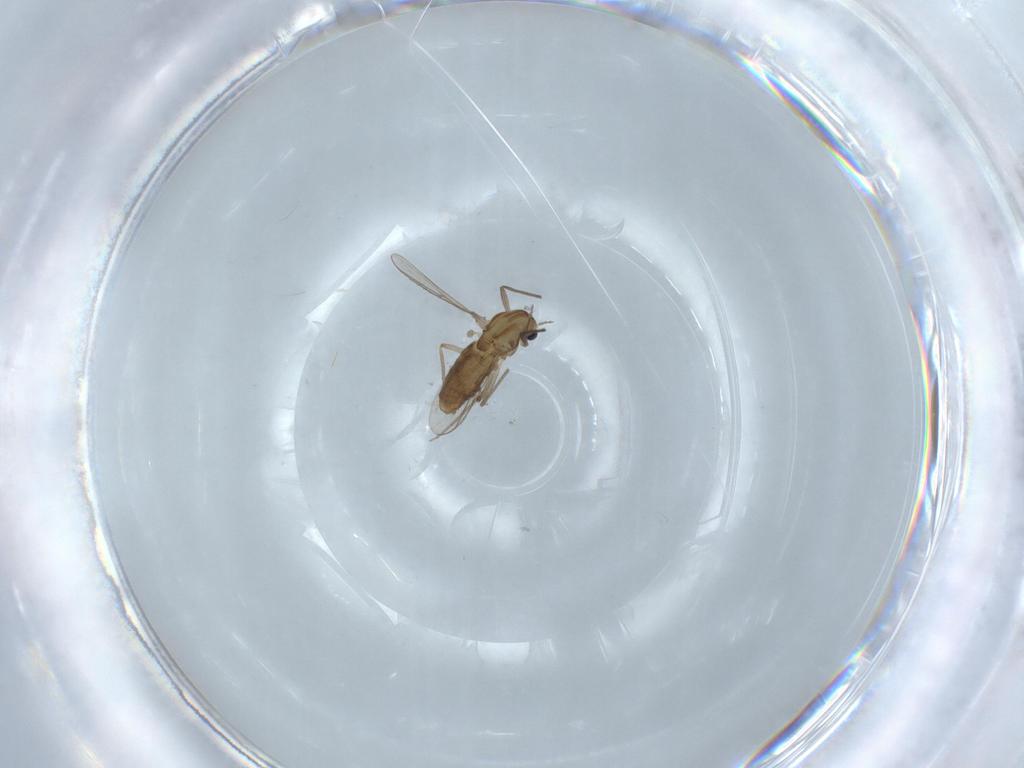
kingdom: Animalia
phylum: Arthropoda
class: Insecta
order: Diptera
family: Chironomidae
